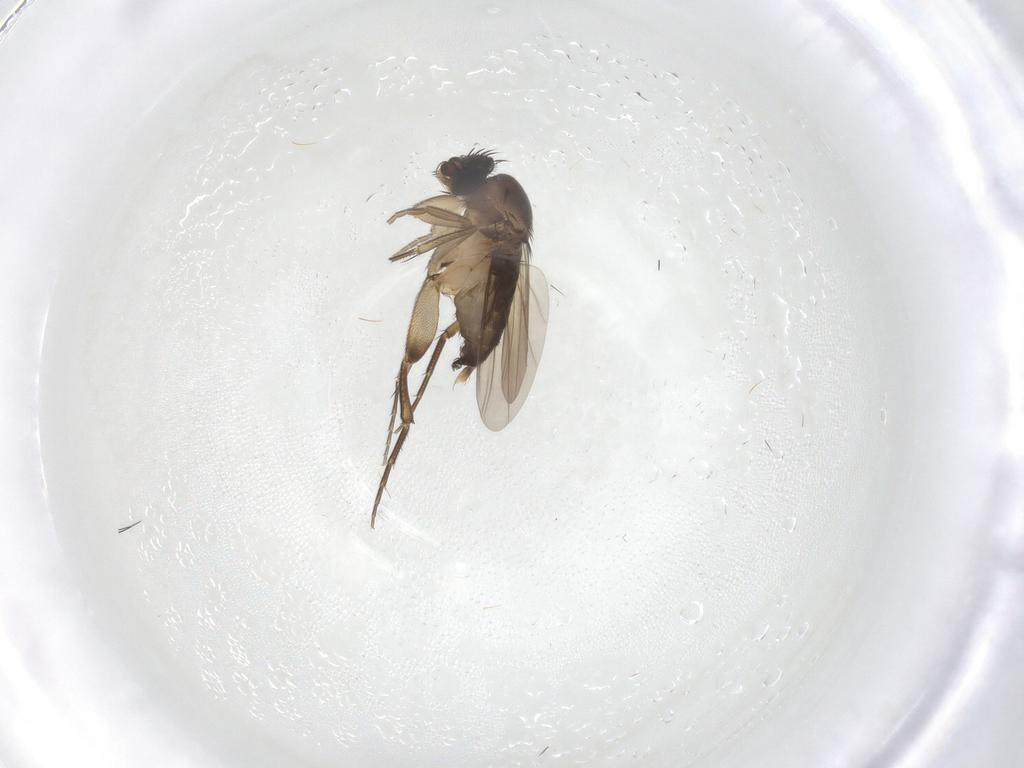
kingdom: Animalia
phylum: Arthropoda
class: Insecta
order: Diptera
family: Phoridae
